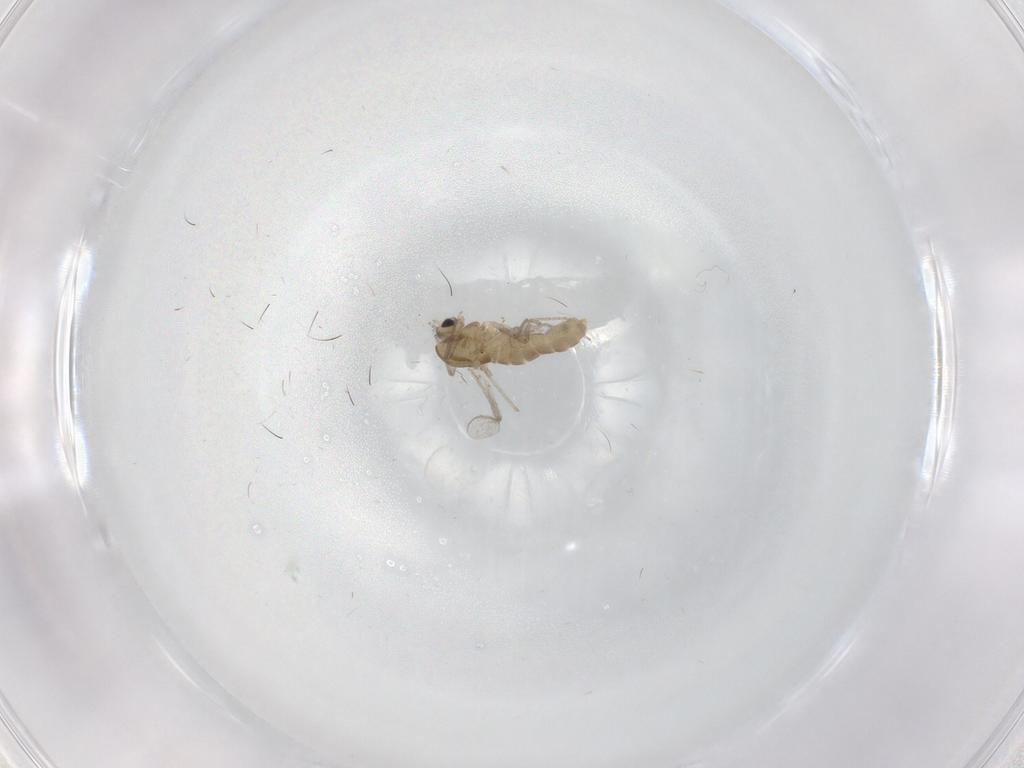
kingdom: Animalia
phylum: Arthropoda
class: Insecta
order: Diptera
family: Chironomidae
